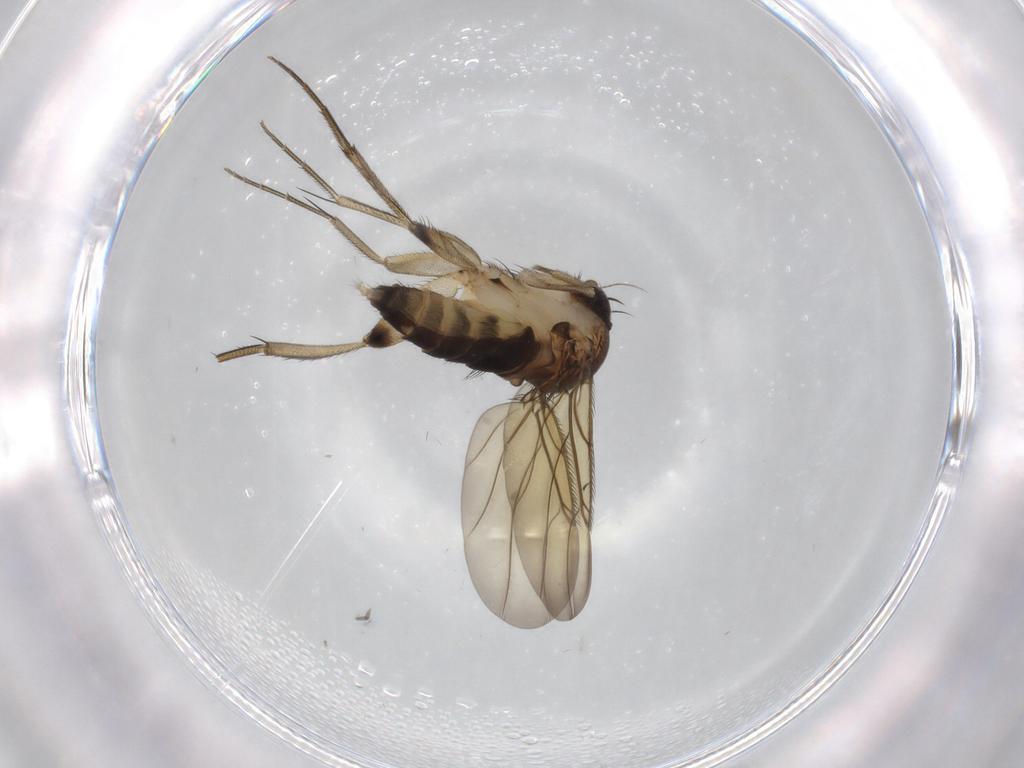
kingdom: Animalia
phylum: Arthropoda
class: Insecta
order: Diptera
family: Phoridae
